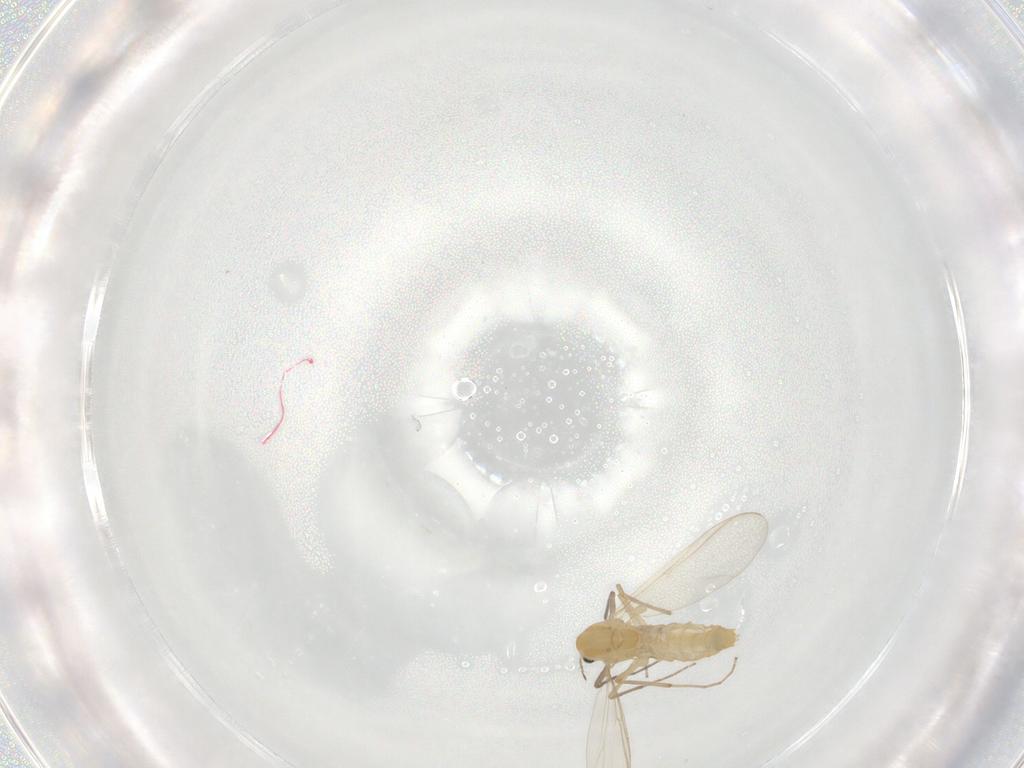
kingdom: Animalia
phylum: Arthropoda
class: Insecta
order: Diptera
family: Chironomidae
